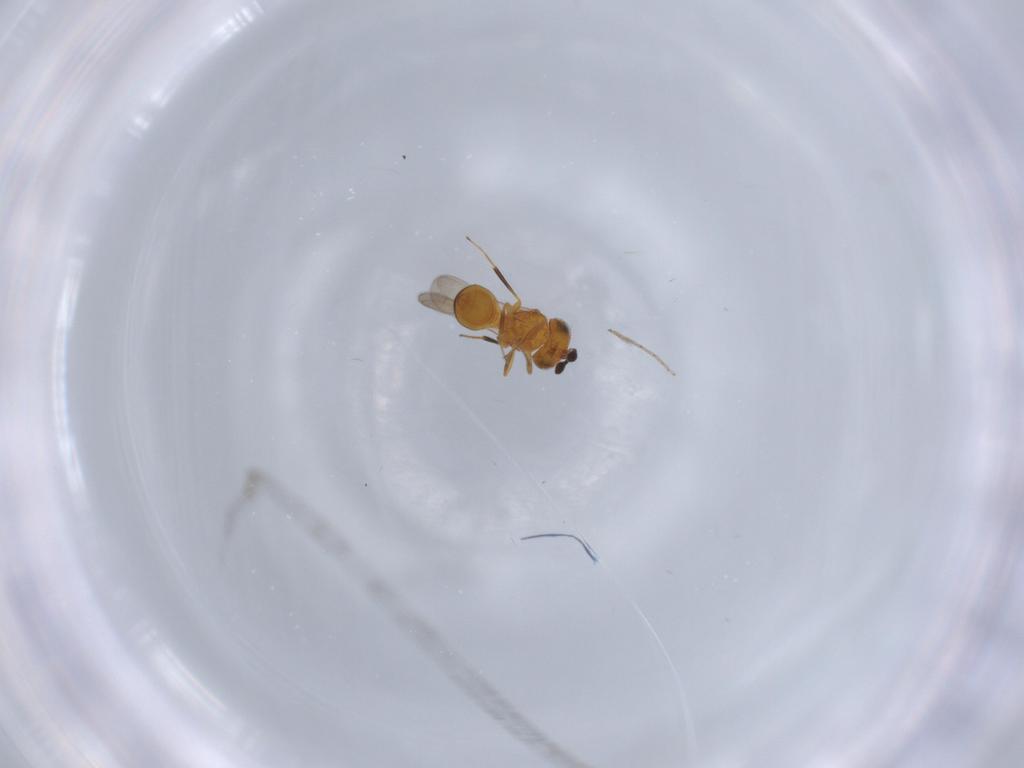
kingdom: Animalia
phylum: Arthropoda
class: Insecta
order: Hymenoptera
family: Scelionidae
